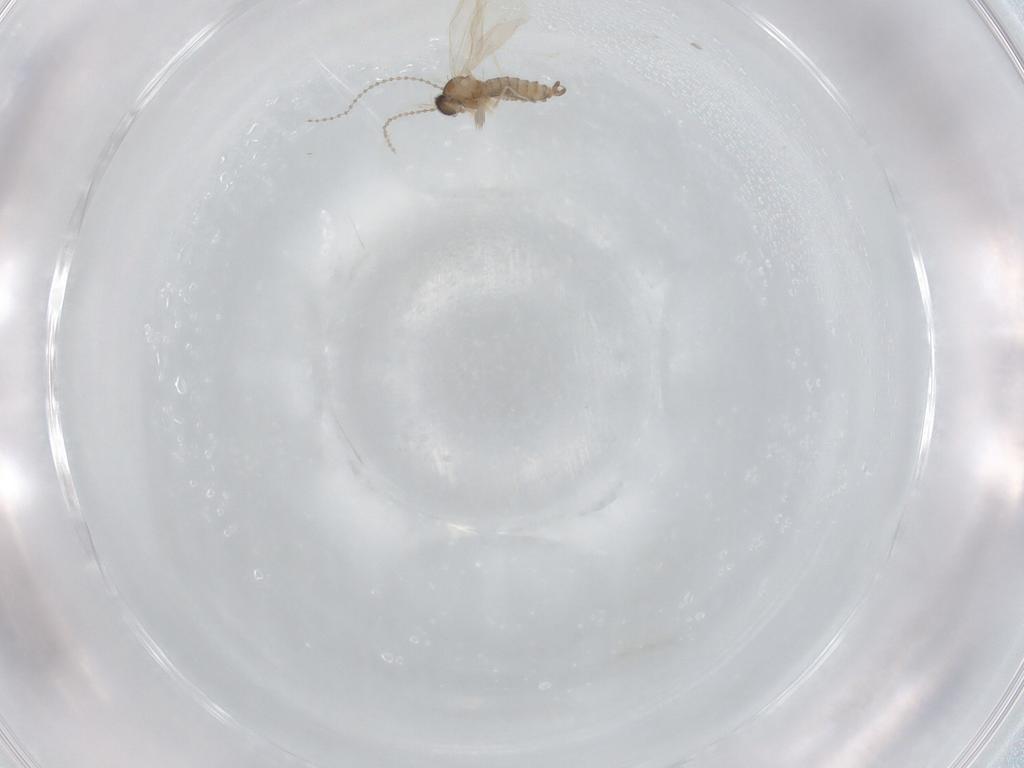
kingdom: Animalia
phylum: Arthropoda
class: Insecta
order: Diptera
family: Cecidomyiidae
